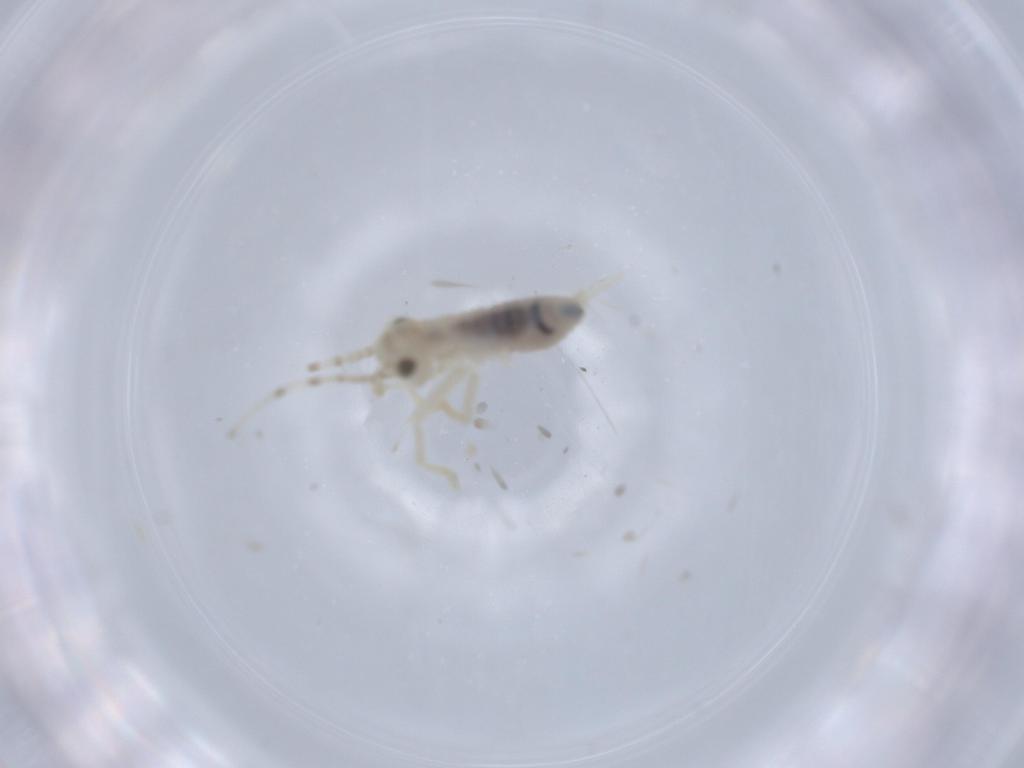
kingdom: Animalia
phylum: Arthropoda
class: Insecta
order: Orthoptera
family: Trigonidiidae
